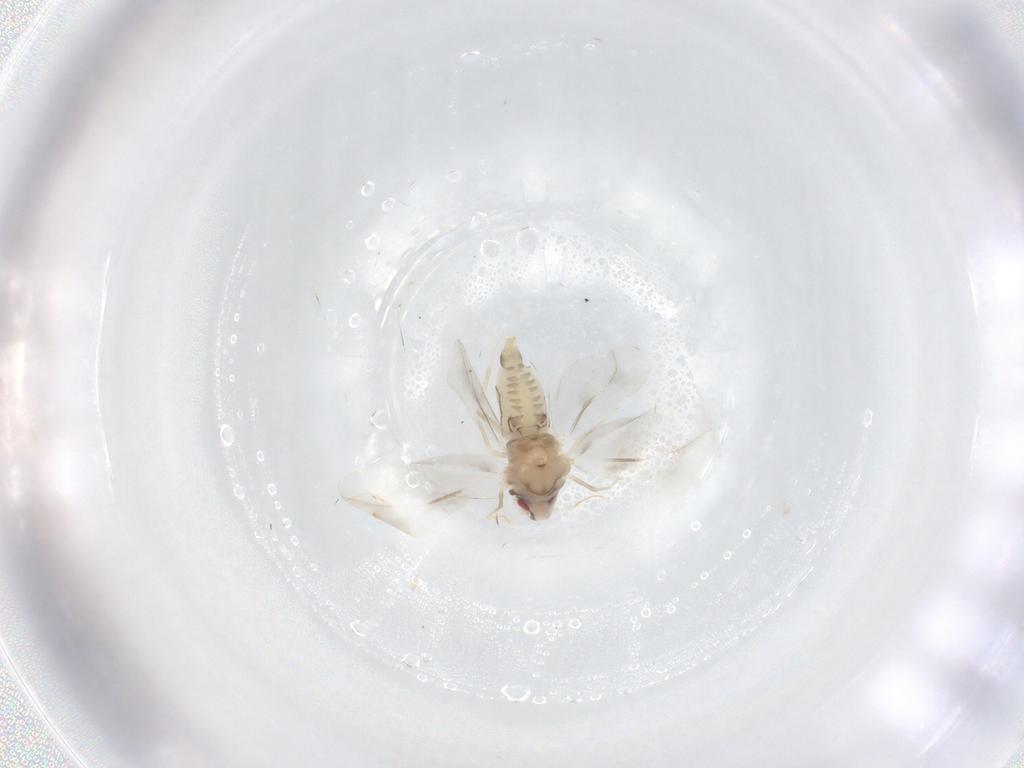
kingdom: Animalia
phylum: Arthropoda
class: Insecta
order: Hemiptera
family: Aleyrodidae
